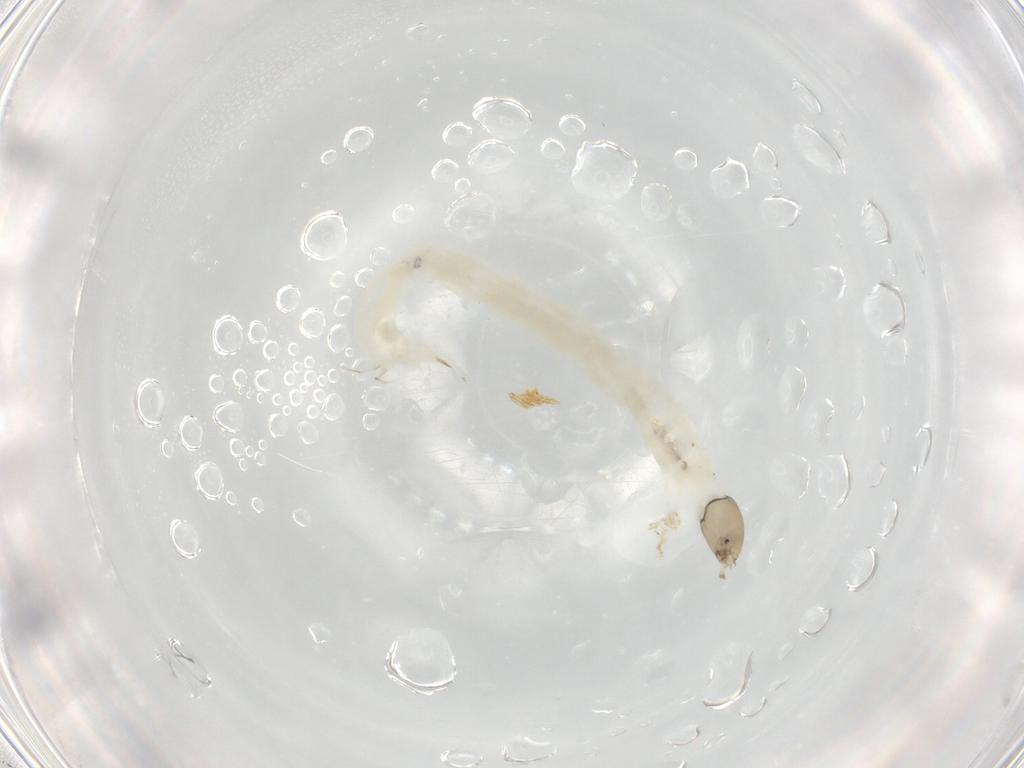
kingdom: Animalia
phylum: Arthropoda
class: Insecta
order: Diptera
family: Chironomidae
